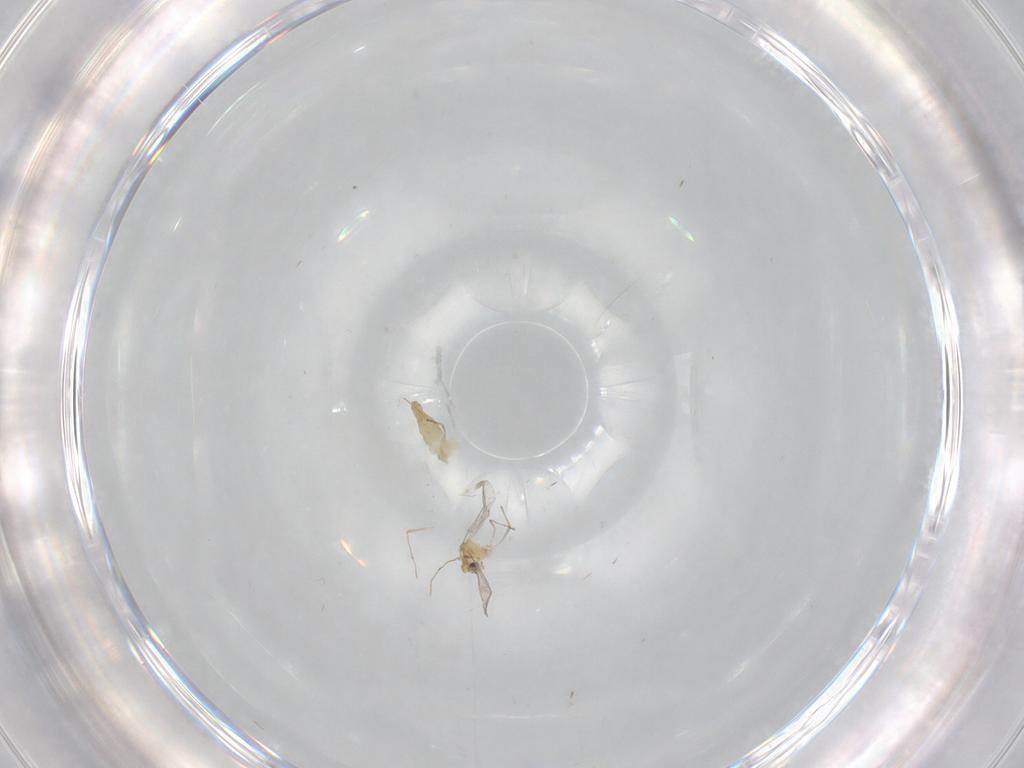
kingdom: Animalia
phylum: Arthropoda
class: Insecta
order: Diptera
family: Chironomidae
